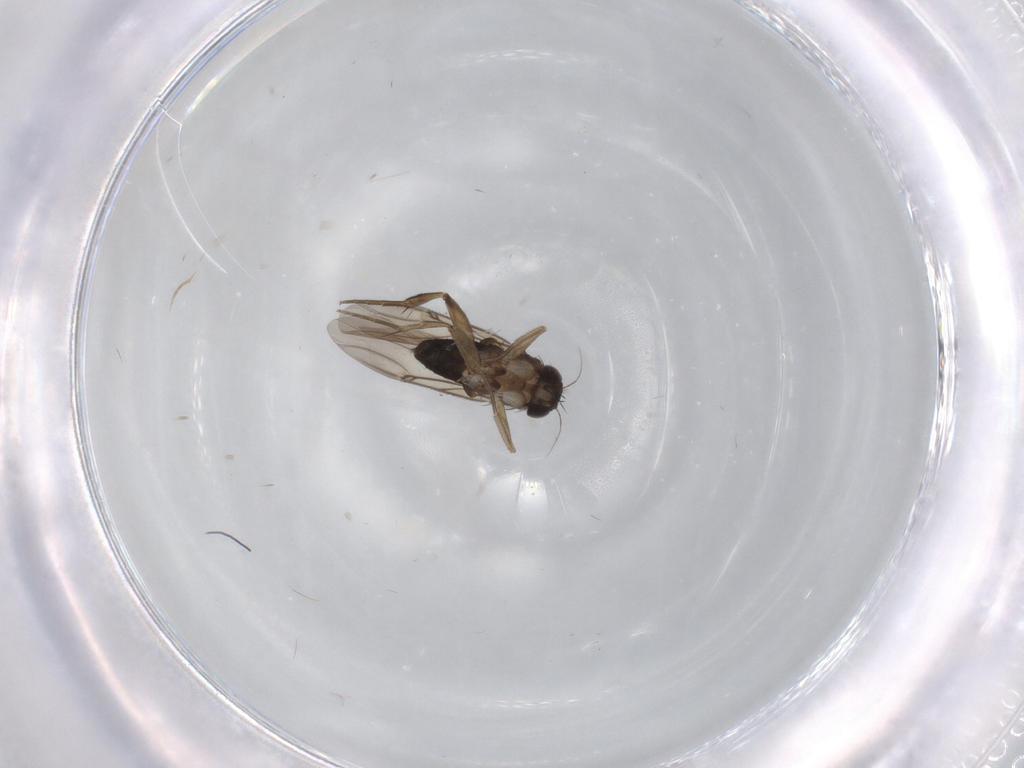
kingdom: Animalia
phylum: Arthropoda
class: Insecta
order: Diptera
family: Phoridae
